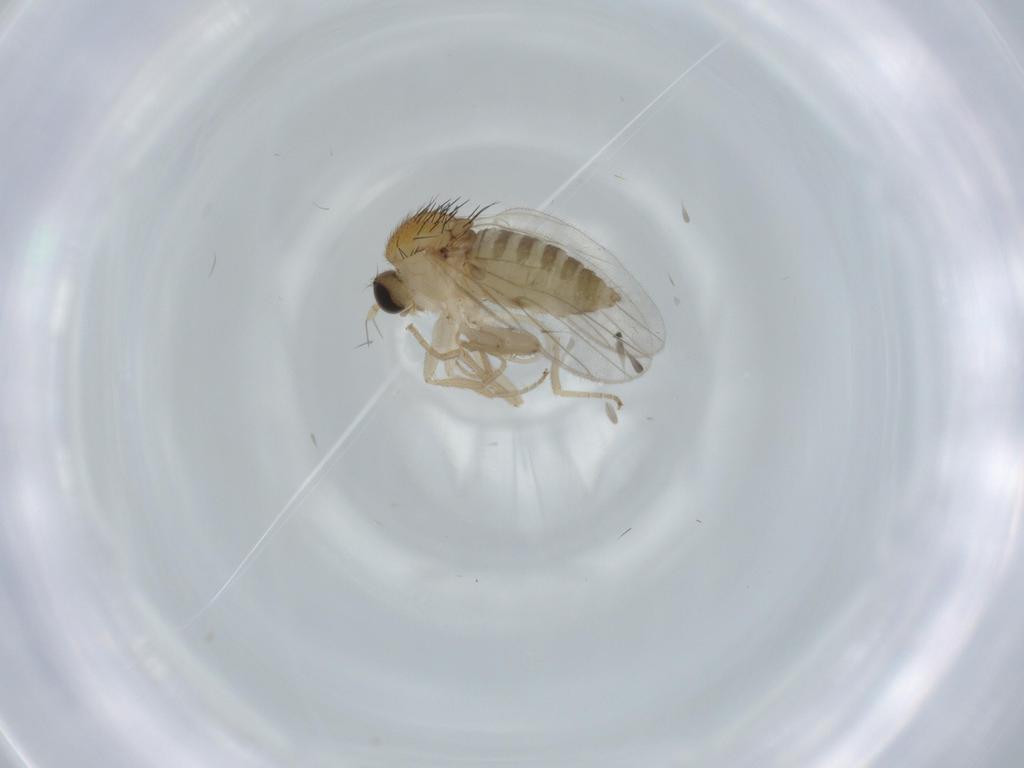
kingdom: Animalia
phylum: Arthropoda
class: Insecta
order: Diptera
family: Hybotidae
